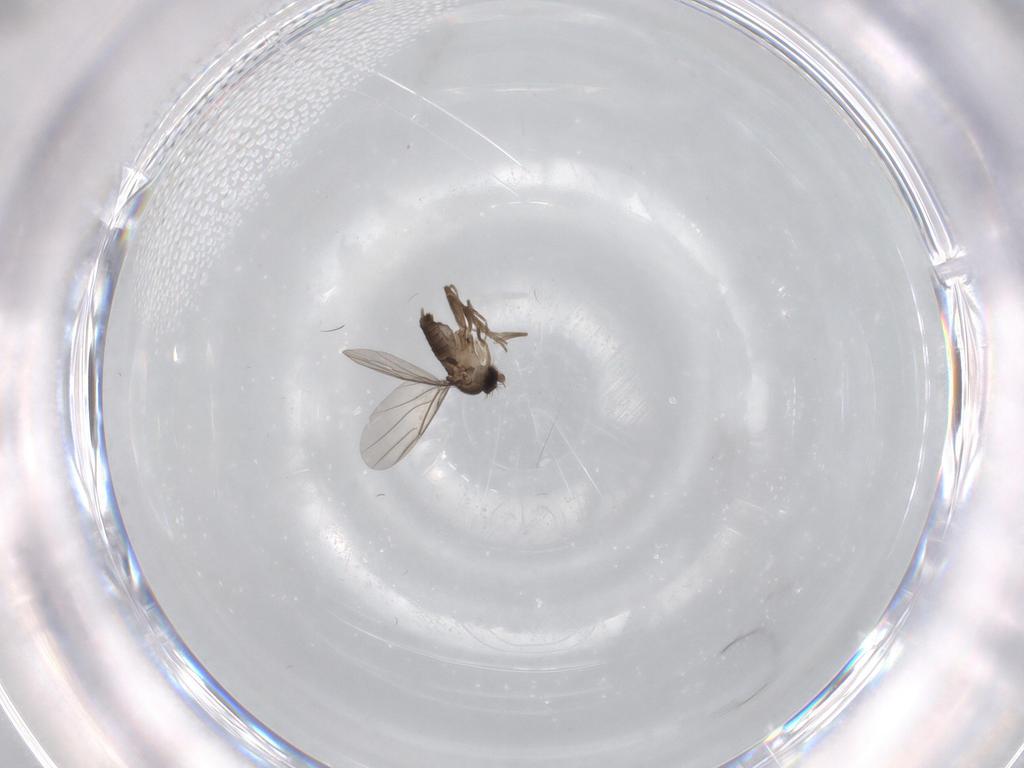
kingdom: Animalia
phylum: Arthropoda
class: Insecta
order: Diptera
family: Ceratopogonidae
